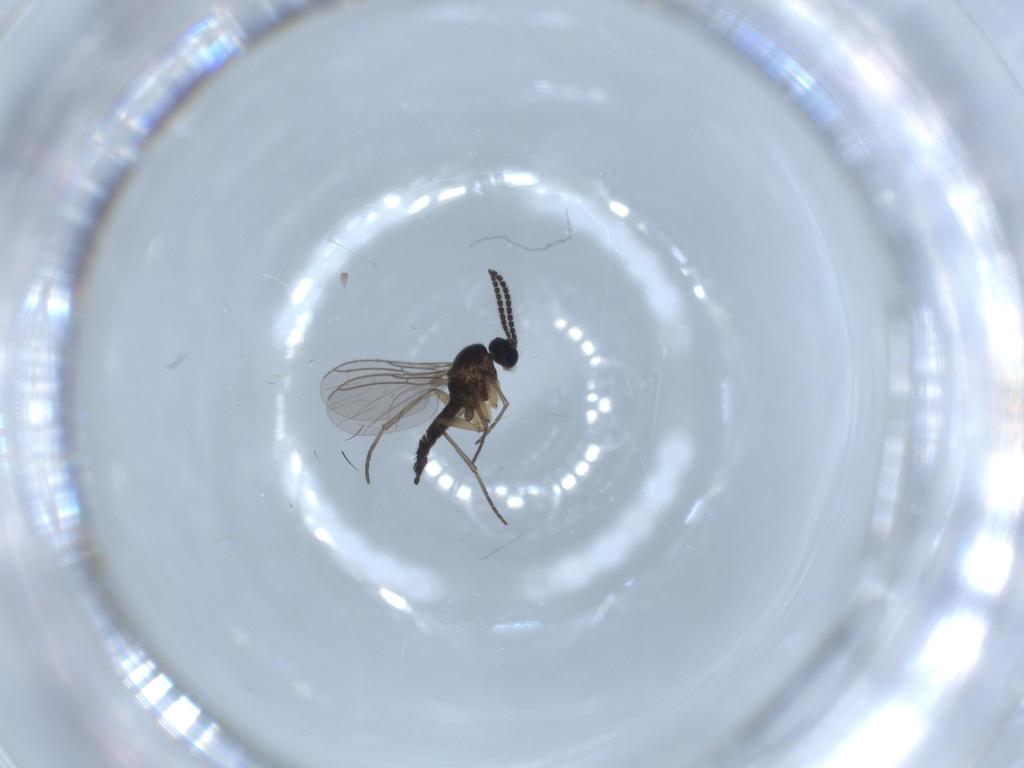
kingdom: Animalia
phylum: Arthropoda
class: Insecta
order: Diptera
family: Sciaridae
